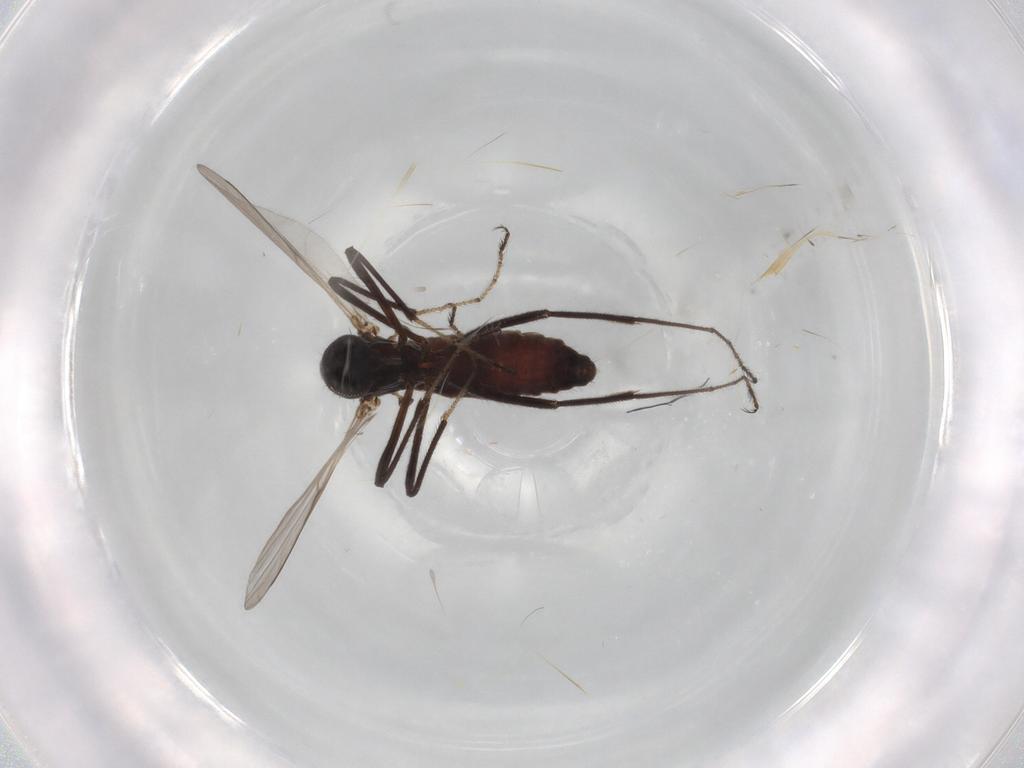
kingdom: Animalia
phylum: Arthropoda
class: Insecta
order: Diptera
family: Ceratopogonidae
